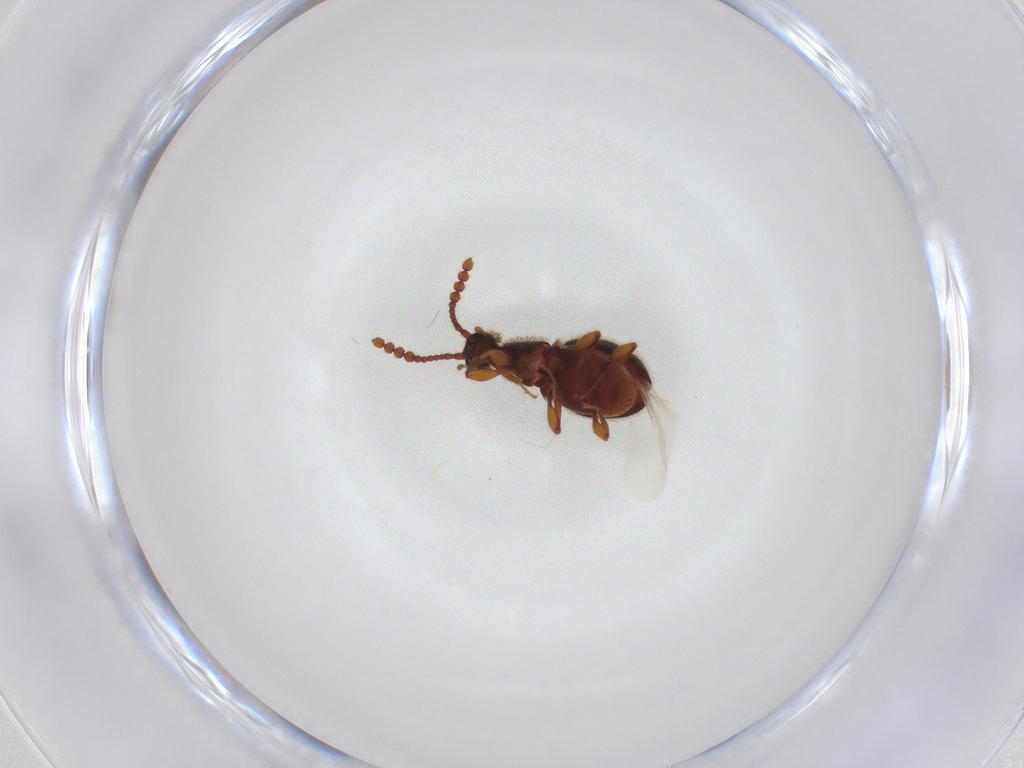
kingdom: Animalia
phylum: Arthropoda
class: Insecta
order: Coleoptera
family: Staphylinidae
